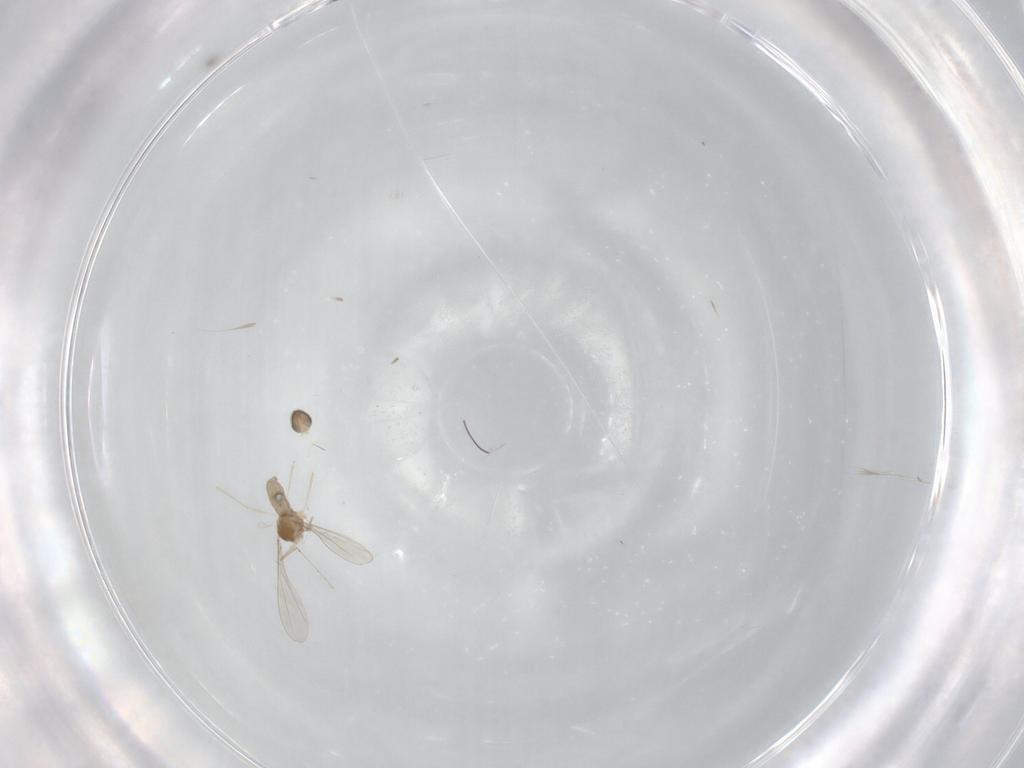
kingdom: Animalia
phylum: Arthropoda
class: Insecta
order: Diptera
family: Cecidomyiidae
